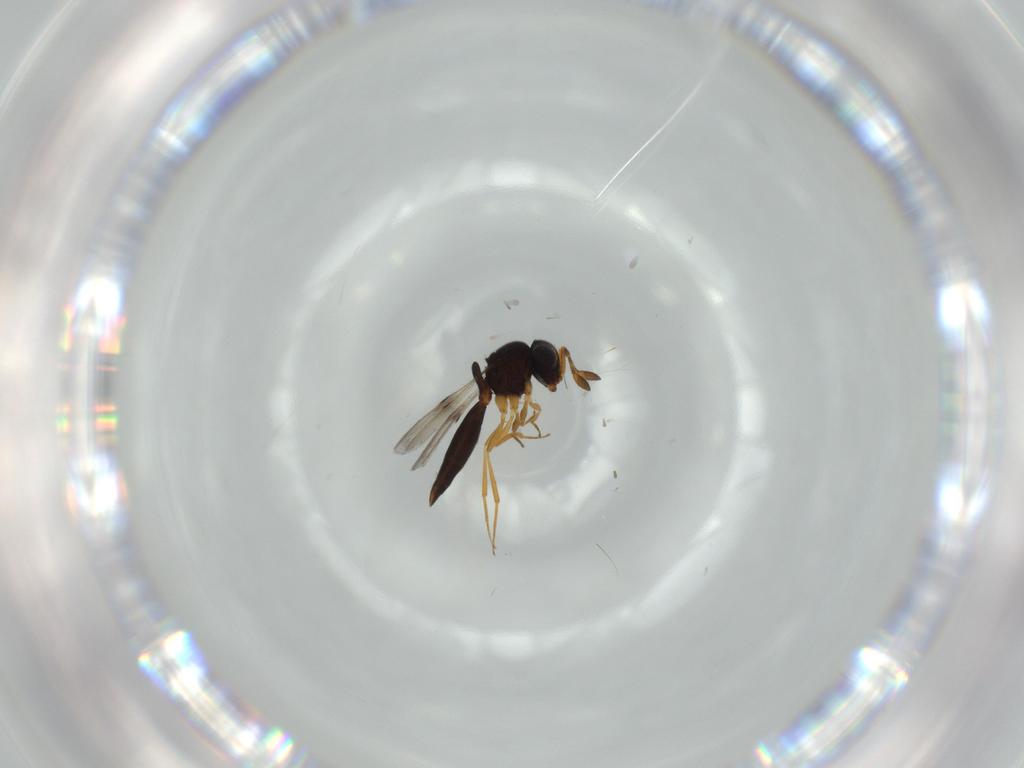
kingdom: Animalia
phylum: Arthropoda
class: Insecta
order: Hymenoptera
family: Scelionidae
